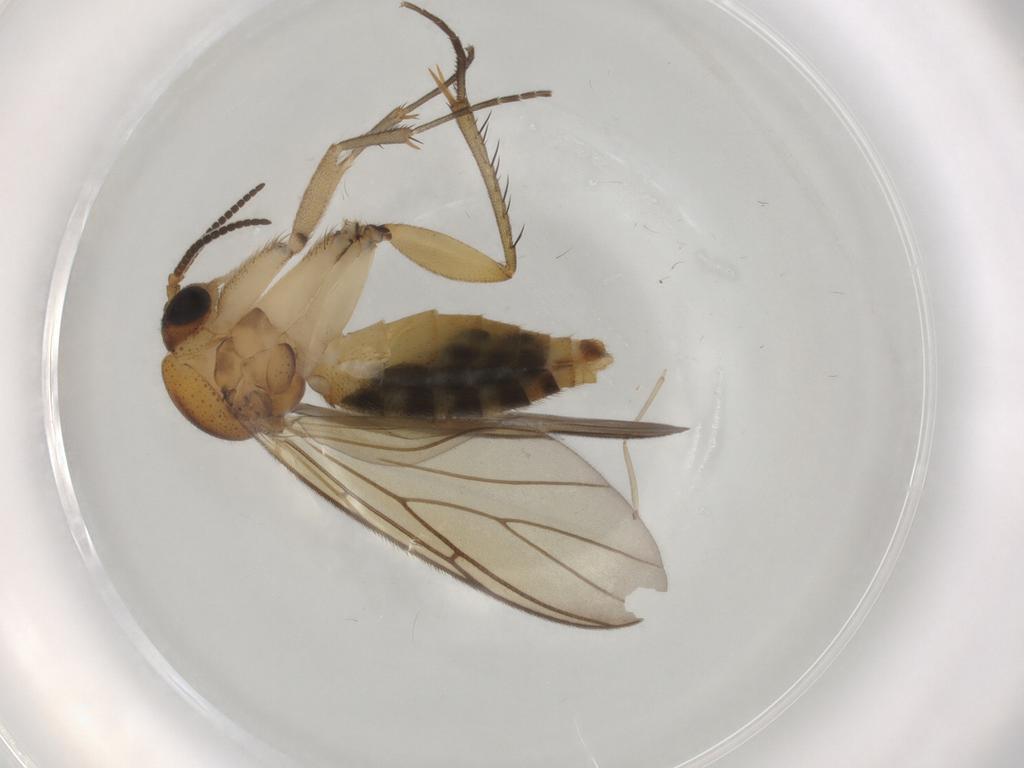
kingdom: Animalia
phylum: Arthropoda
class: Insecta
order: Diptera
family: Mycetophilidae
